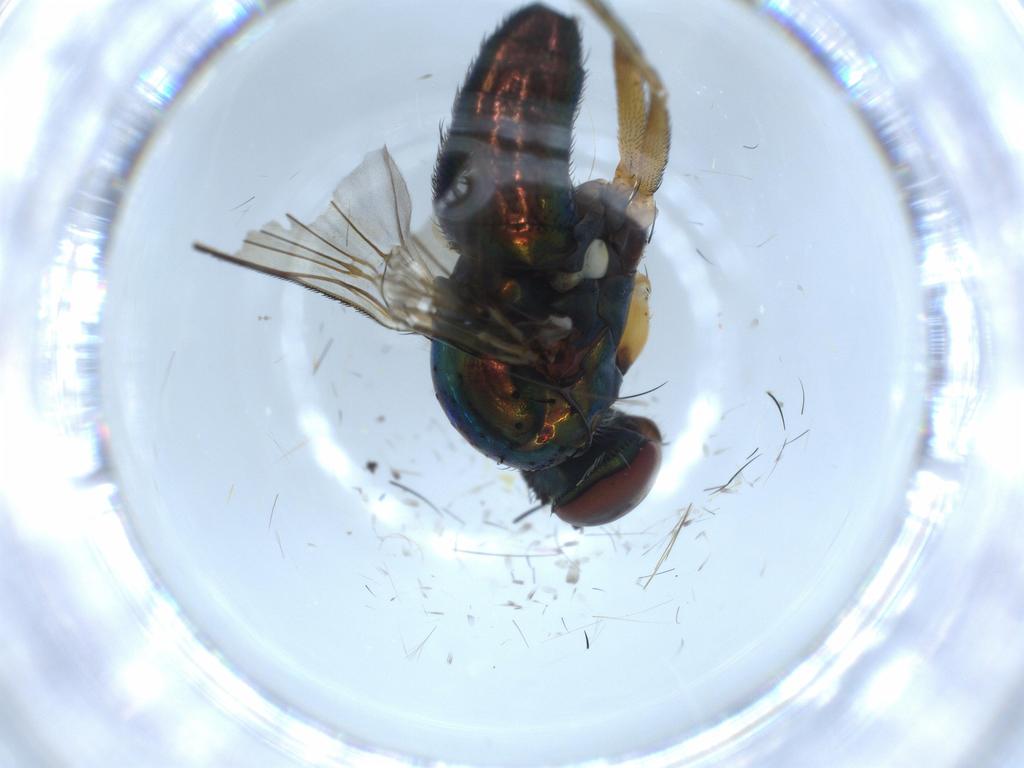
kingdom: Animalia
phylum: Arthropoda
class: Insecta
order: Diptera
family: Dolichopodidae
